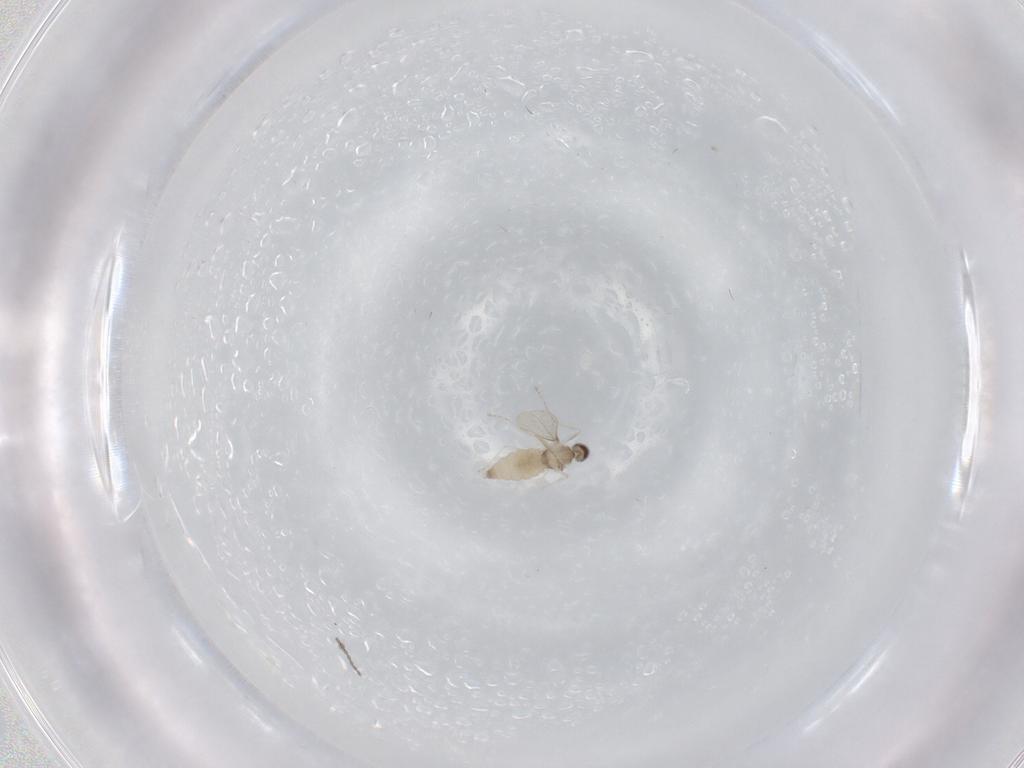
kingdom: Animalia
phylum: Arthropoda
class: Insecta
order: Diptera
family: Cecidomyiidae
